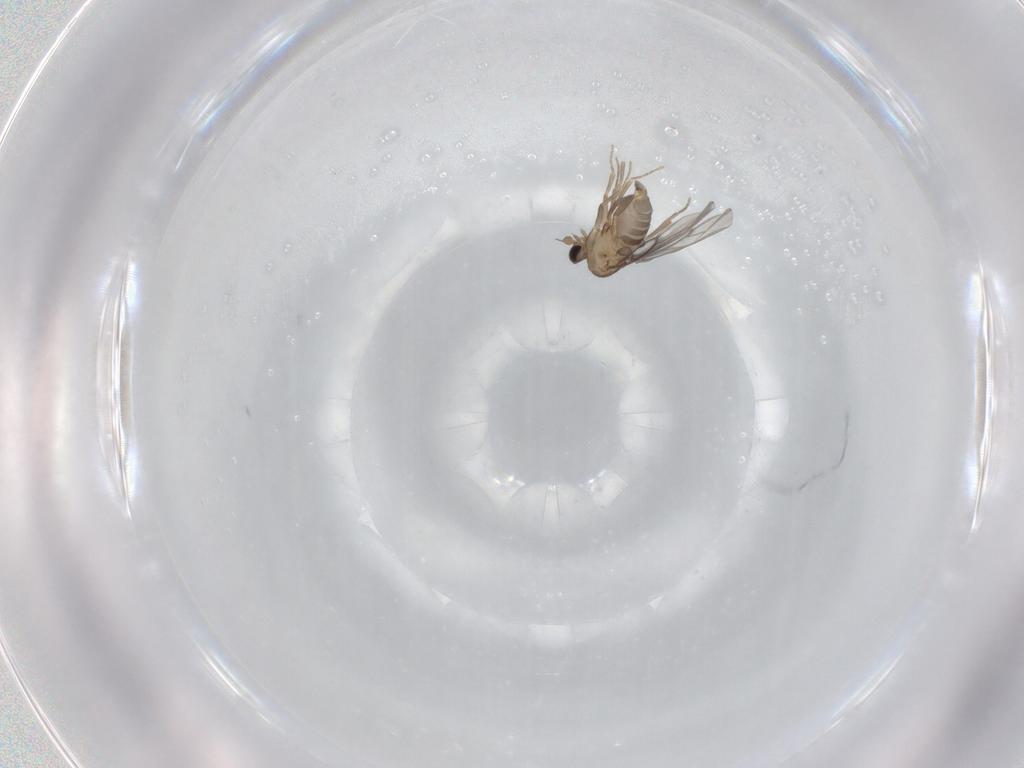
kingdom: Animalia
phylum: Arthropoda
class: Insecta
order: Diptera
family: Cecidomyiidae
